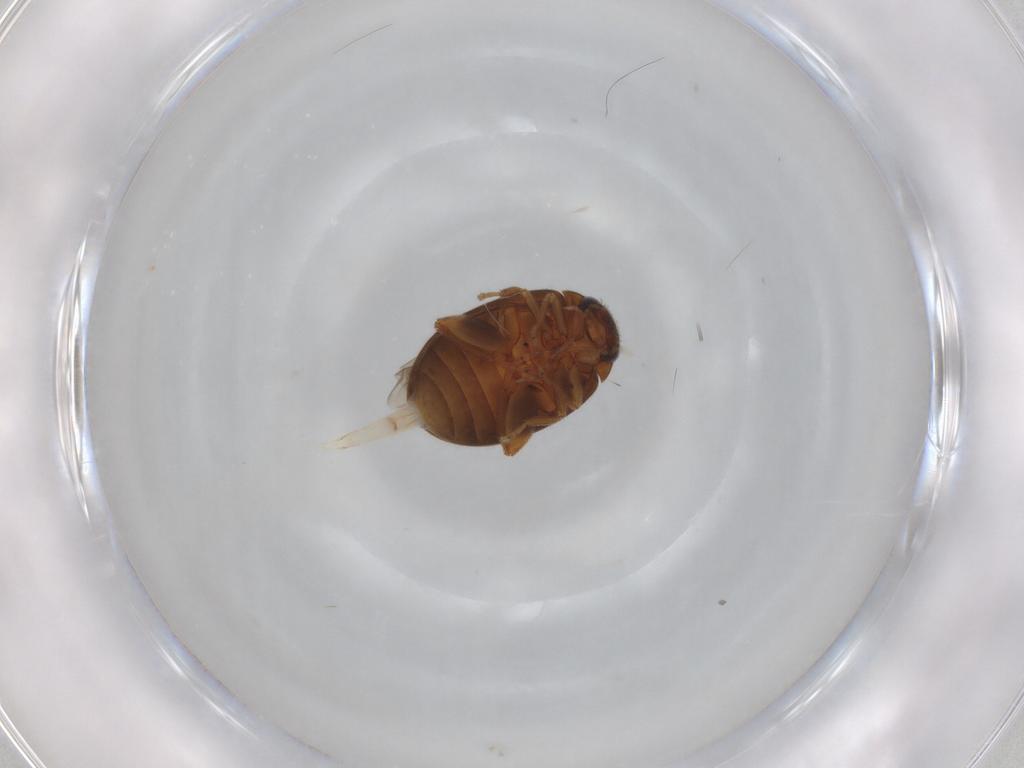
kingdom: Animalia
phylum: Arthropoda
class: Insecta
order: Coleoptera
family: Scirtidae
